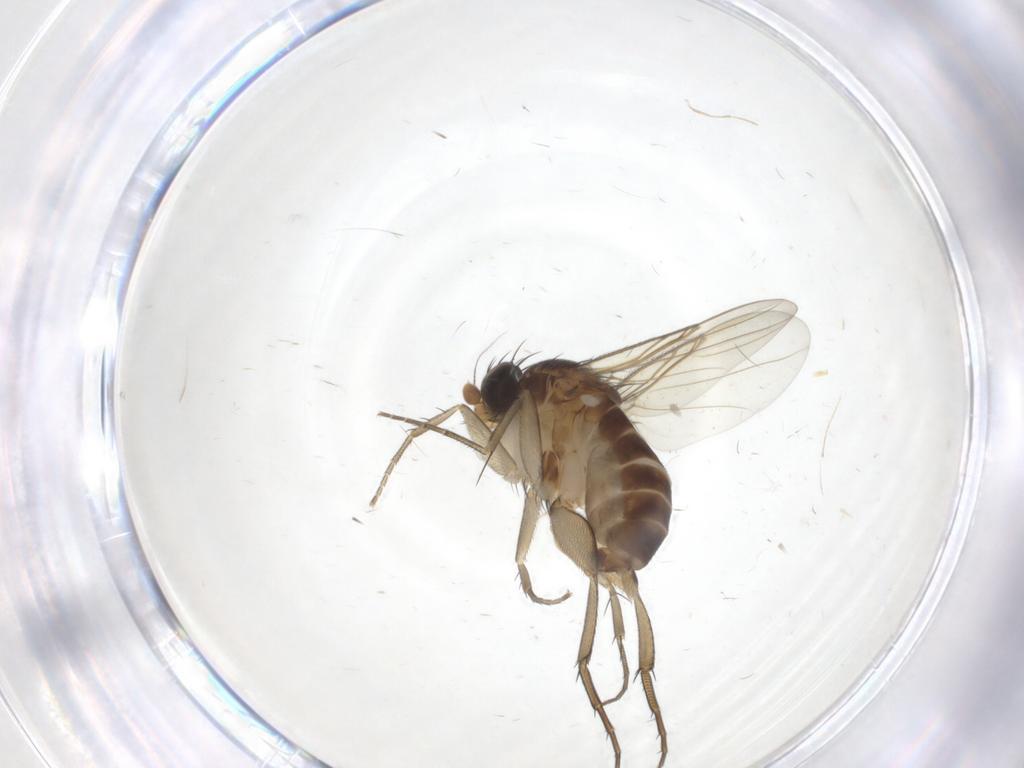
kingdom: Animalia
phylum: Arthropoda
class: Insecta
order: Diptera
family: Phoridae
